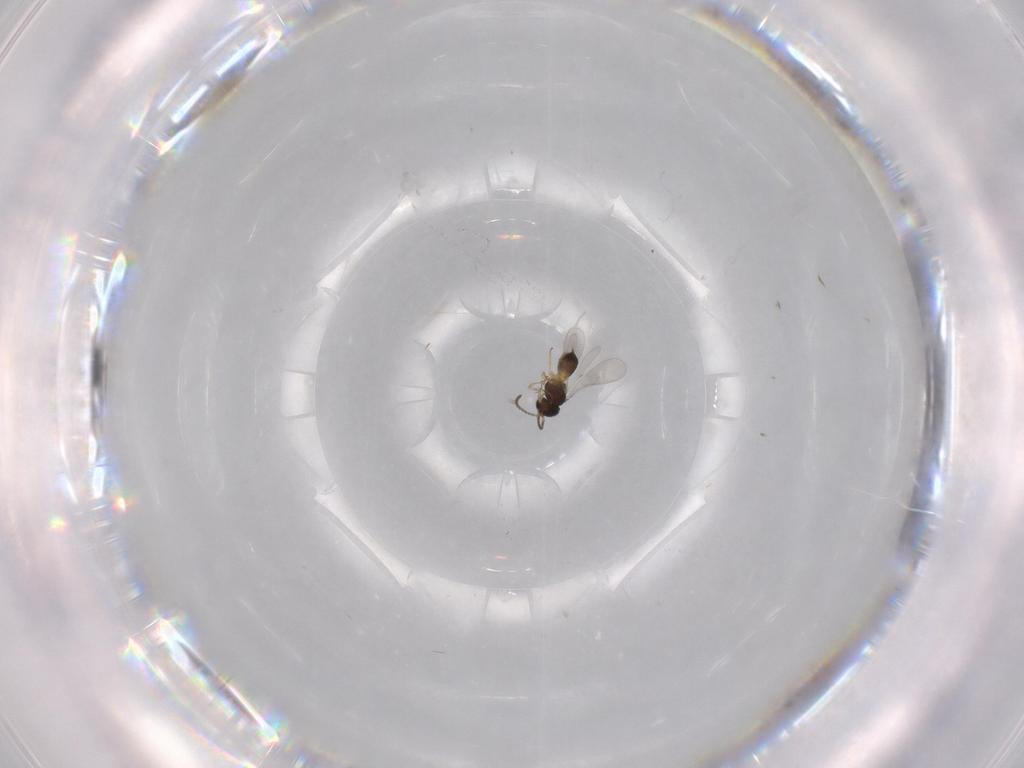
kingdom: Animalia
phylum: Arthropoda
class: Insecta
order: Hymenoptera
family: Scelionidae
